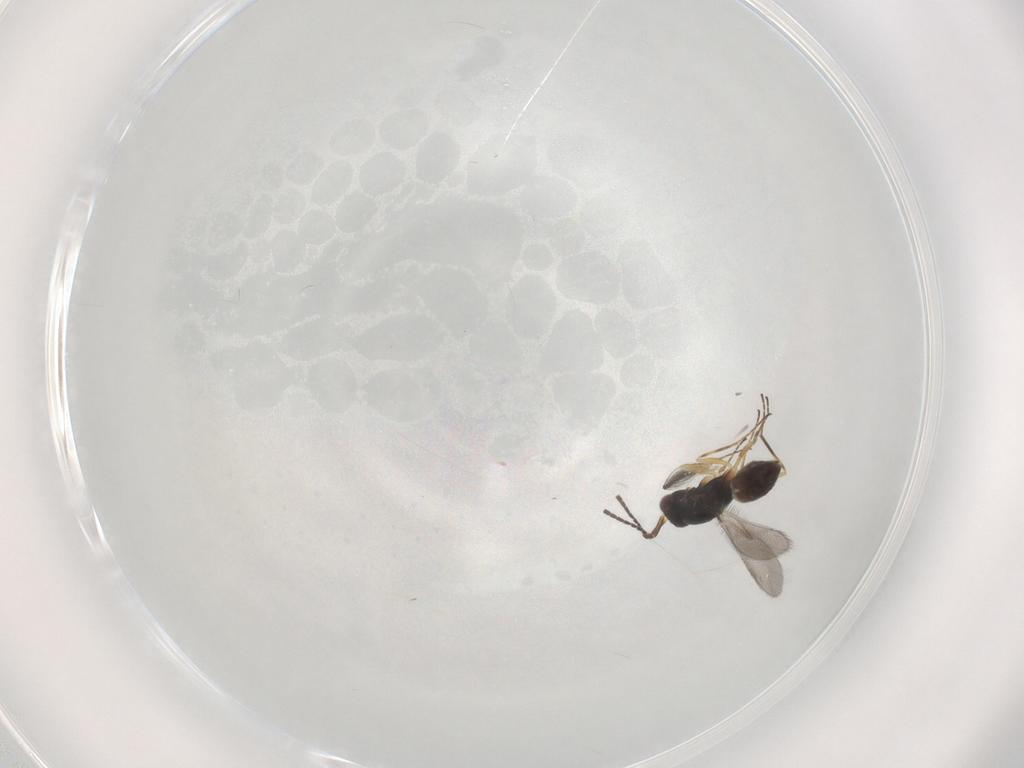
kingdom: Animalia
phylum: Arthropoda
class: Insecta
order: Hymenoptera
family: Mymaridae
